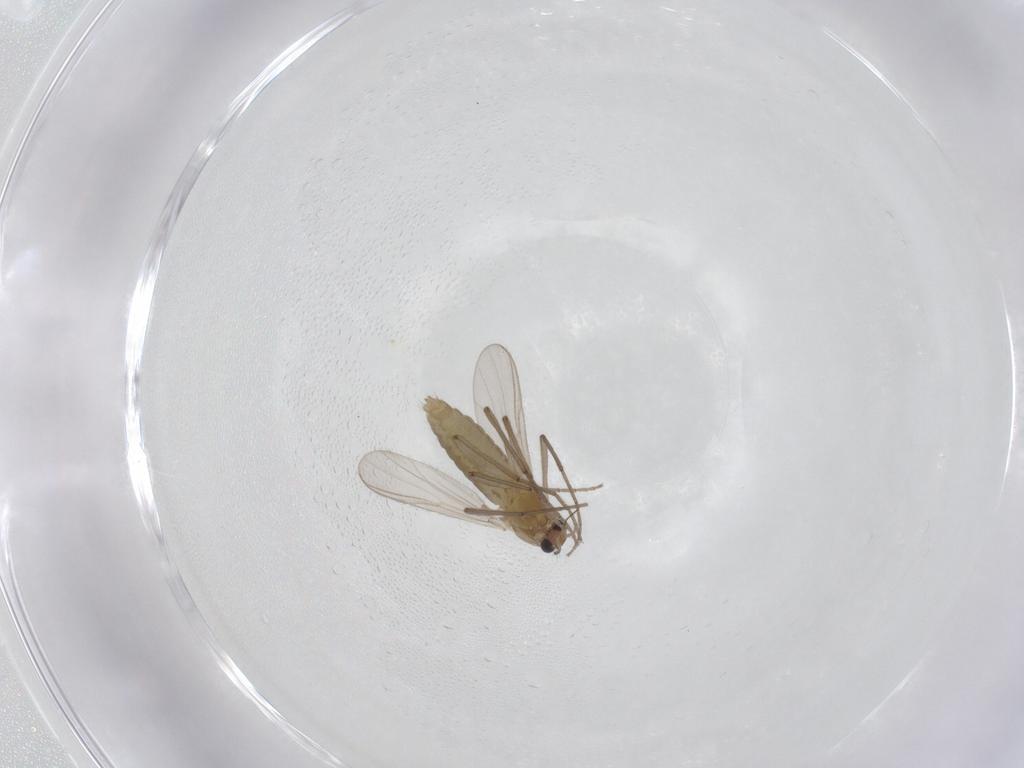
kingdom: Animalia
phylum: Arthropoda
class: Insecta
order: Diptera
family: Chironomidae
